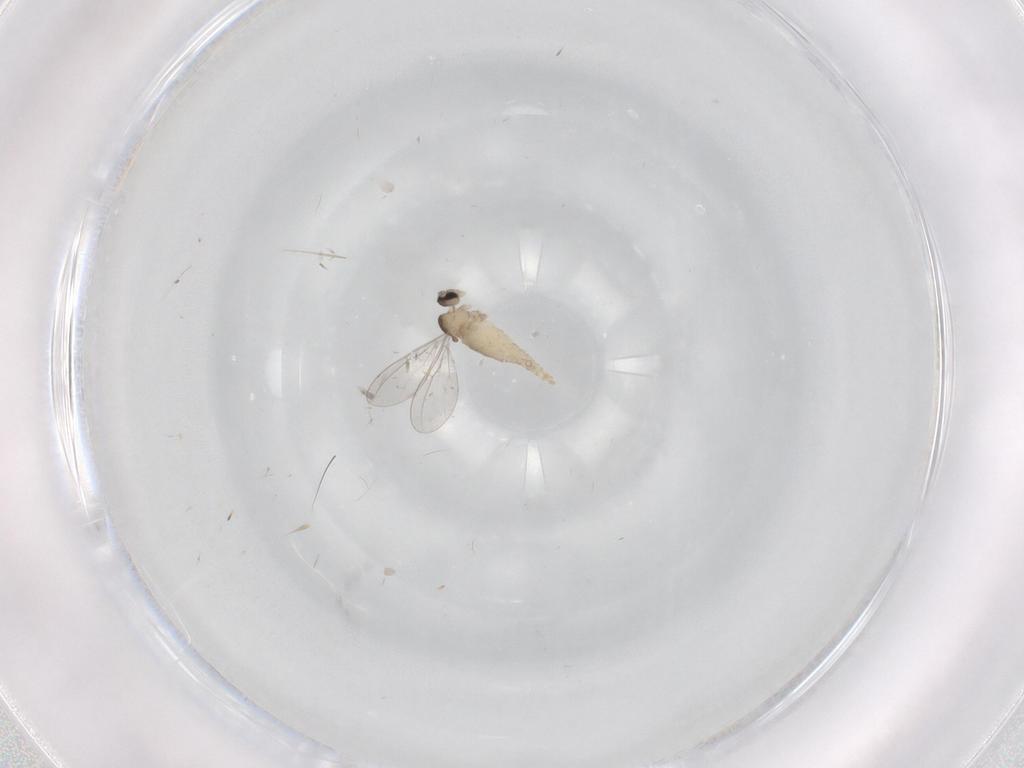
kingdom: Animalia
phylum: Arthropoda
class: Insecta
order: Diptera
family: Cecidomyiidae
